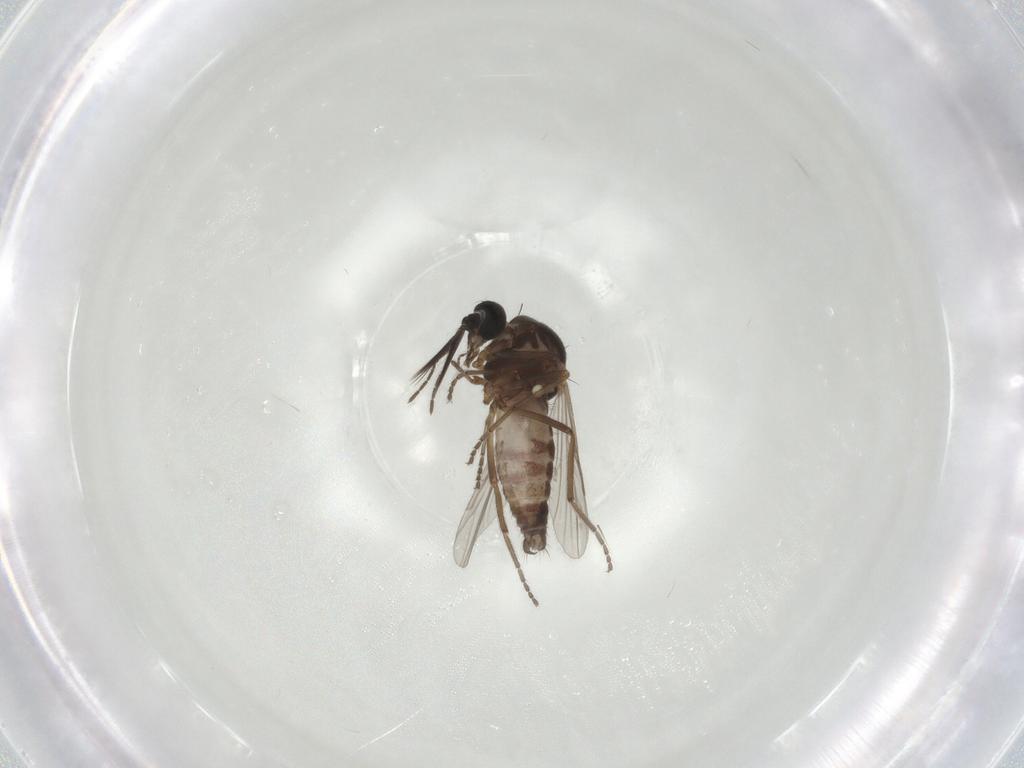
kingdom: Animalia
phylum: Arthropoda
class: Insecta
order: Diptera
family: Ceratopogonidae
